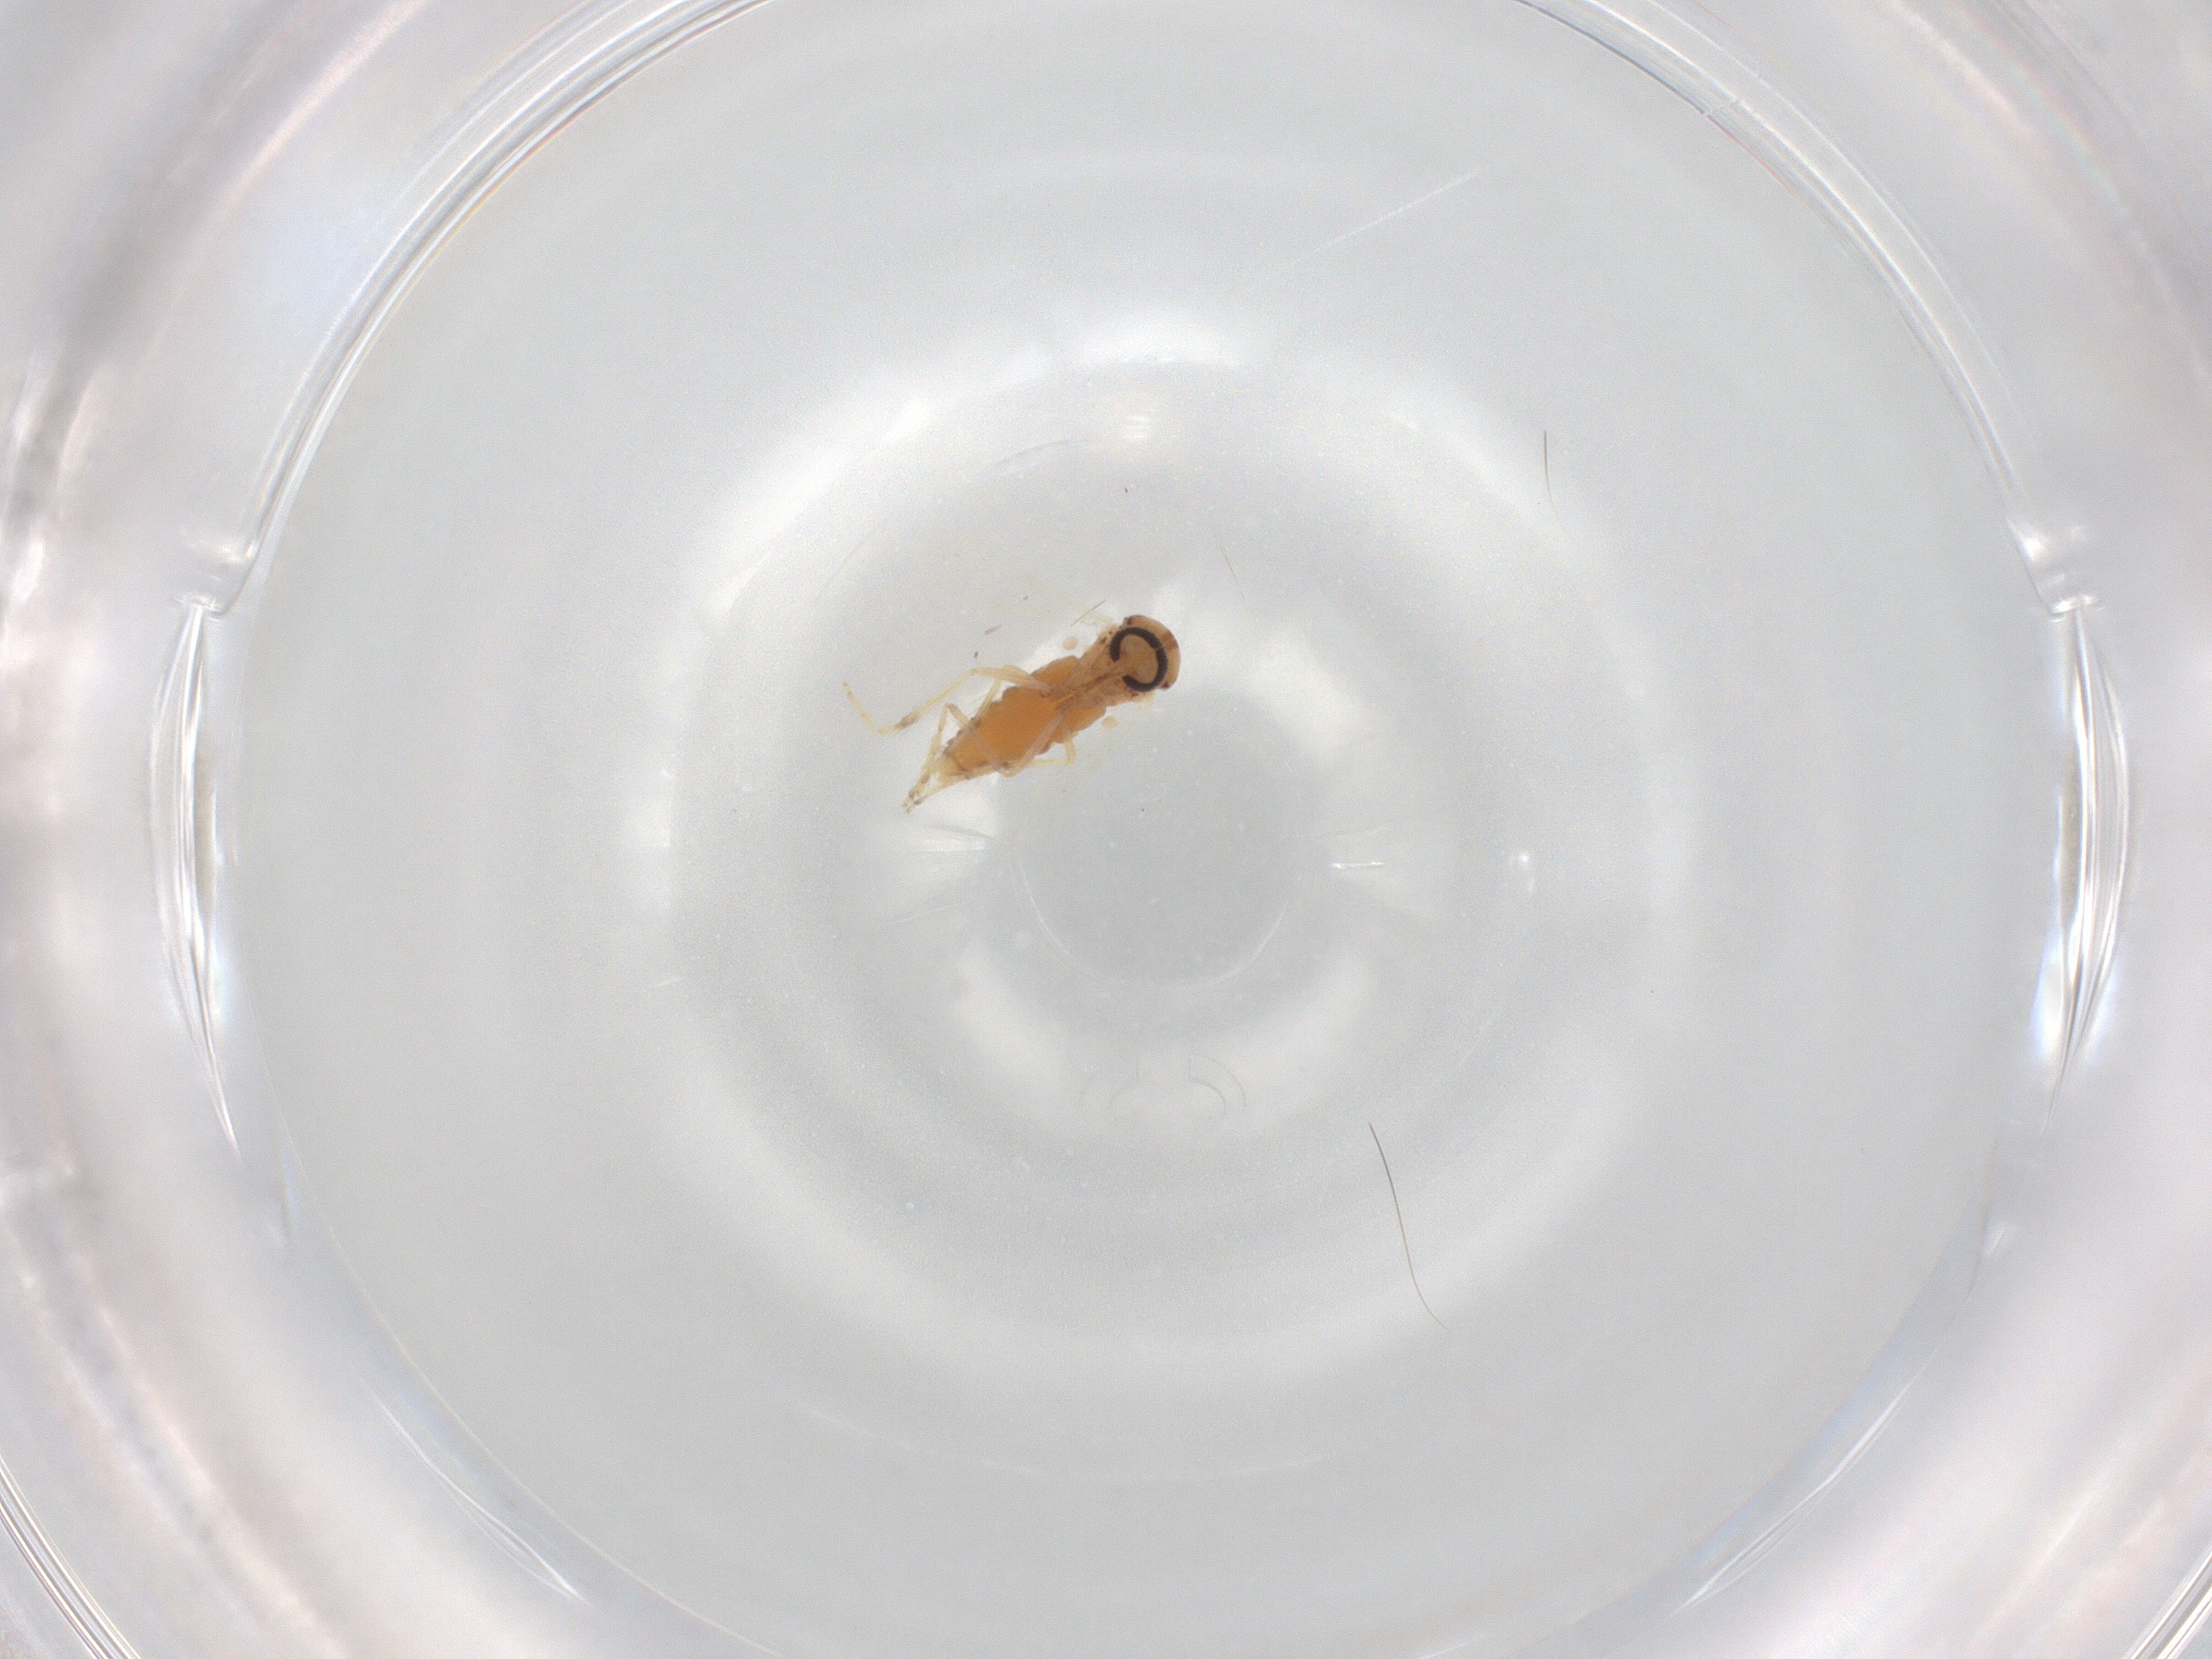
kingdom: Animalia
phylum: Arthropoda
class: Insecta
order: Diptera
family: Ceratopogonidae
